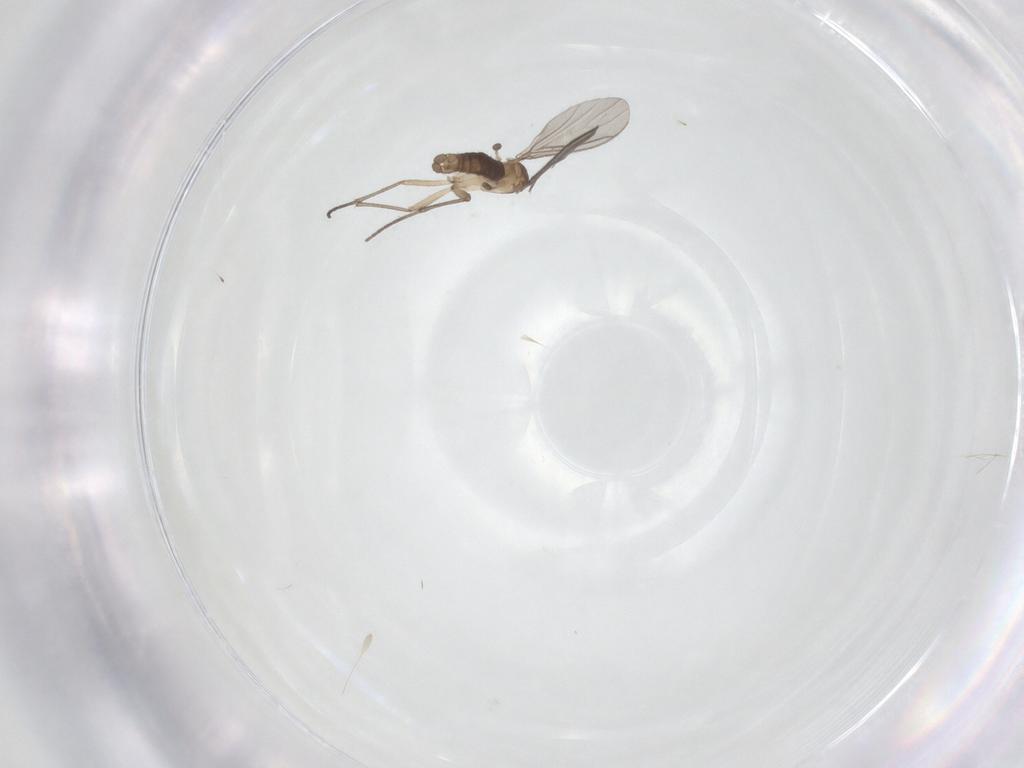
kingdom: Animalia
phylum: Arthropoda
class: Insecta
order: Diptera
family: Sciaridae
